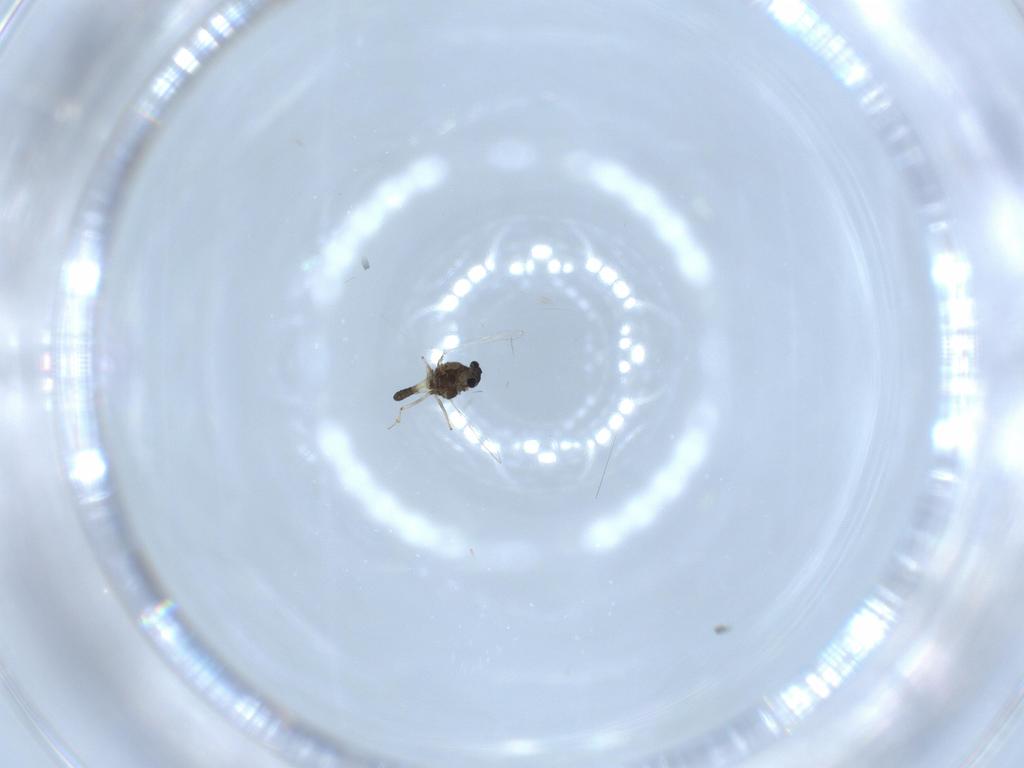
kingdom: Animalia
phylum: Arthropoda
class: Insecta
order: Diptera
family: Chironomidae
